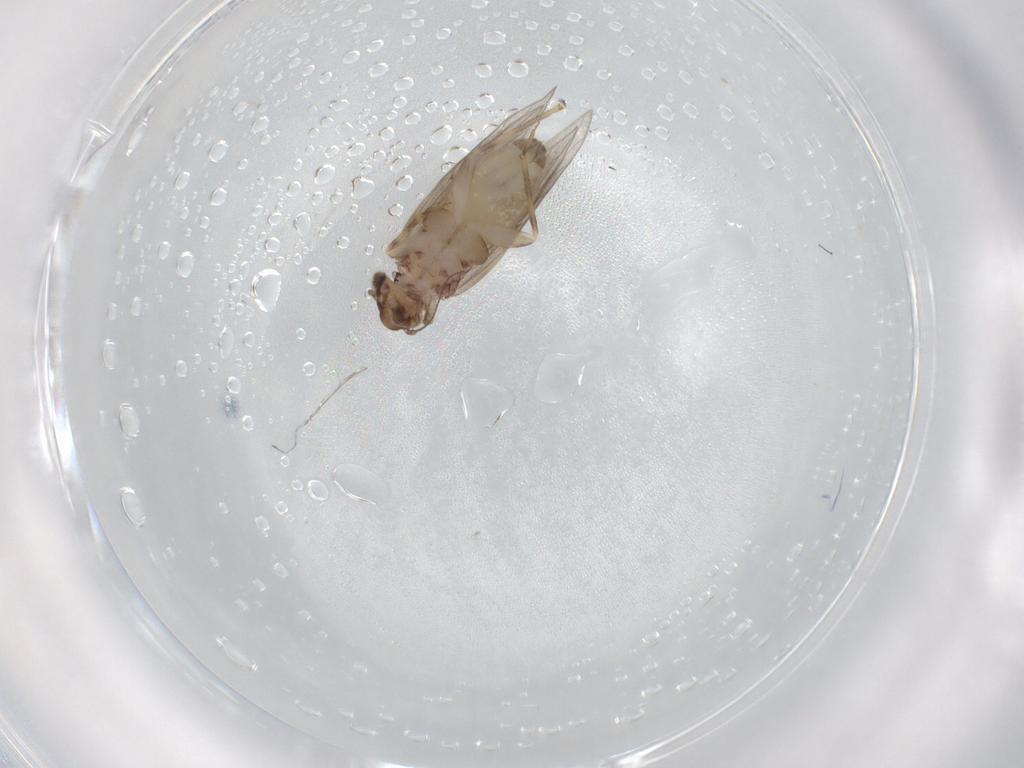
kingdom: Animalia
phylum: Arthropoda
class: Insecta
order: Psocodea
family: Lepidopsocidae
